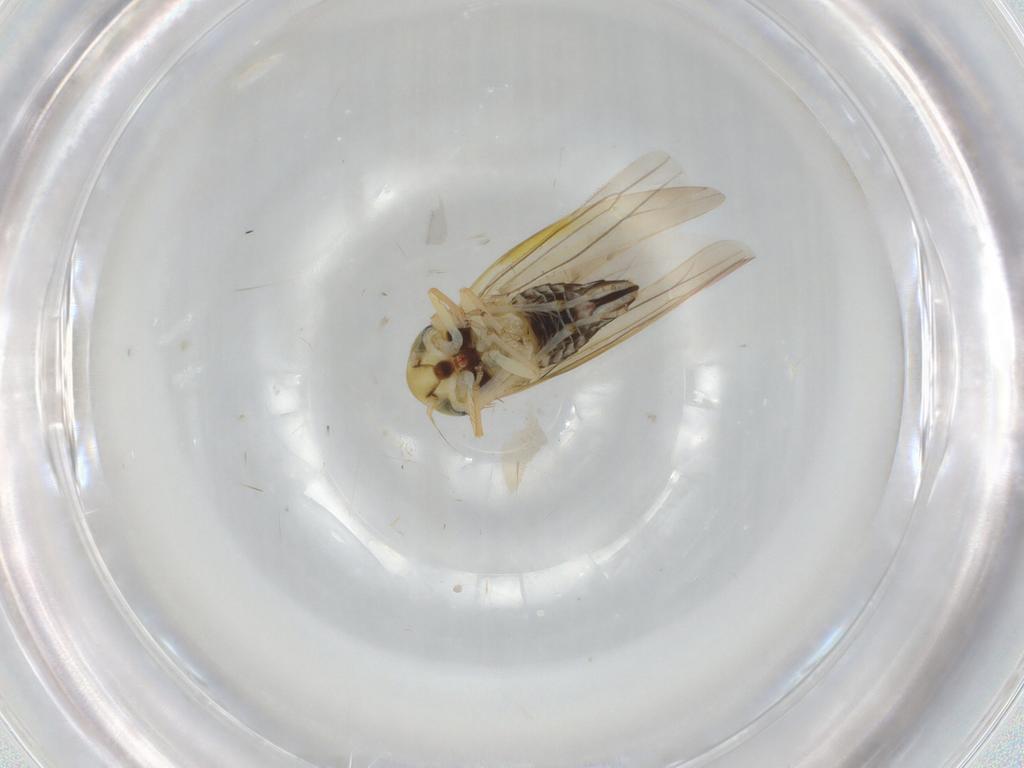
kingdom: Animalia
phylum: Arthropoda
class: Insecta
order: Hemiptera
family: Cicadellidae
